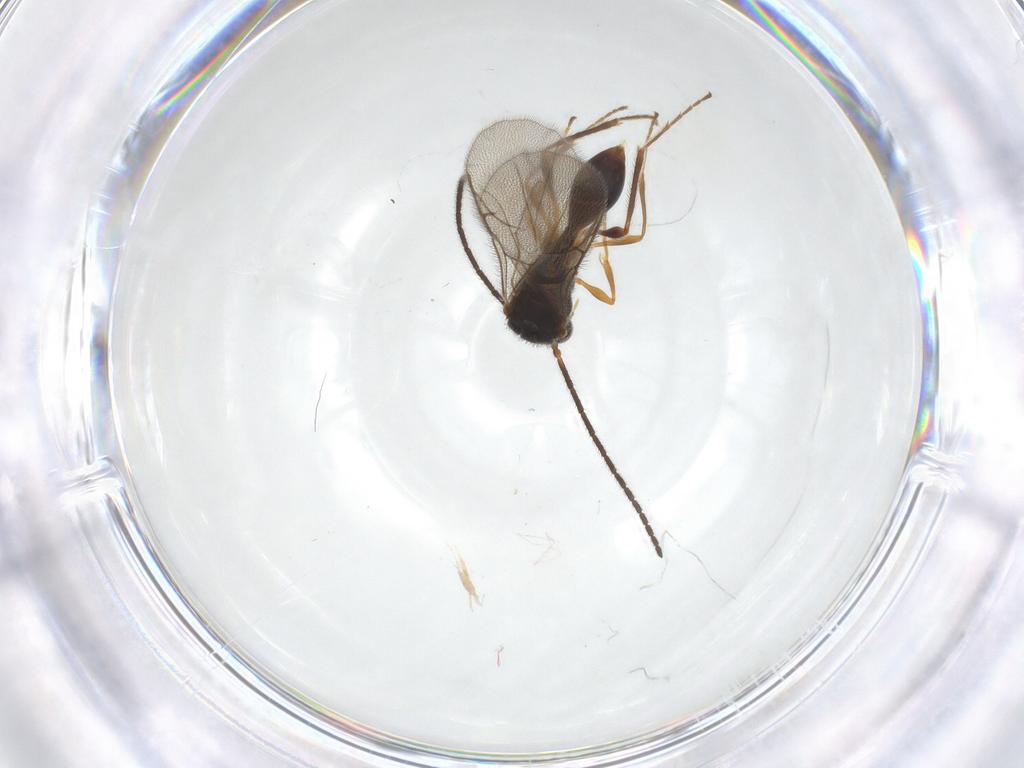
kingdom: Animalia
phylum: Arthropoda
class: Insecta
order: Hymenoptera
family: Diapriidae
